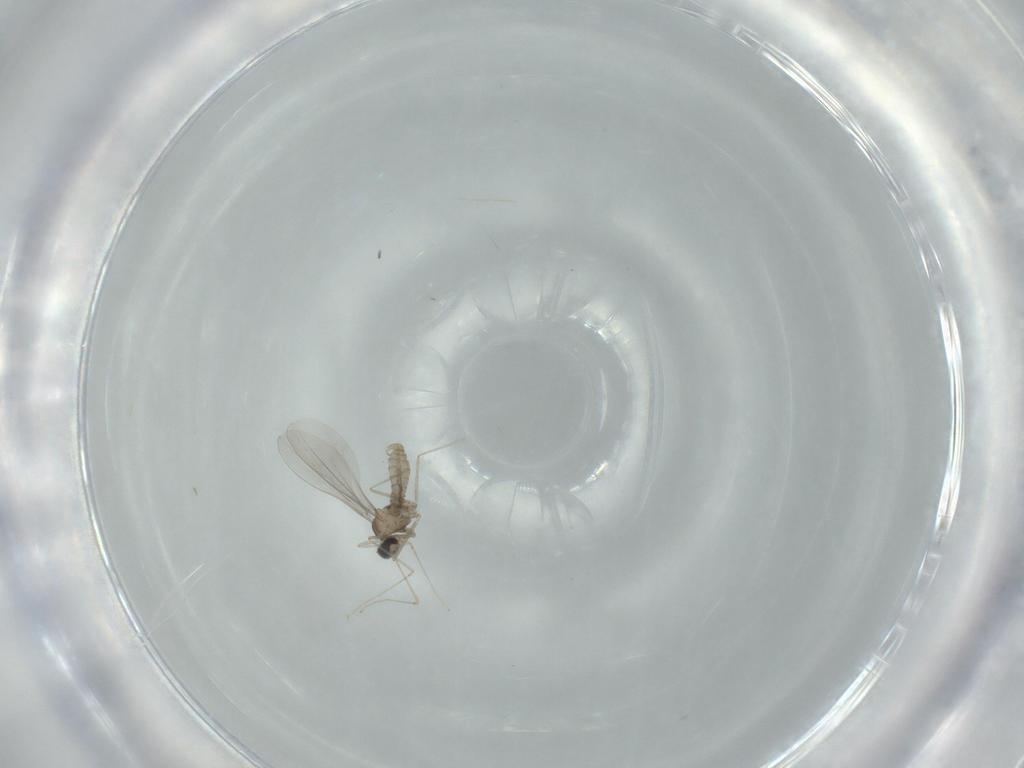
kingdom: Animalia
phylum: Arthropoda
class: Insecta
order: Diptera
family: Cecidomyiidae
